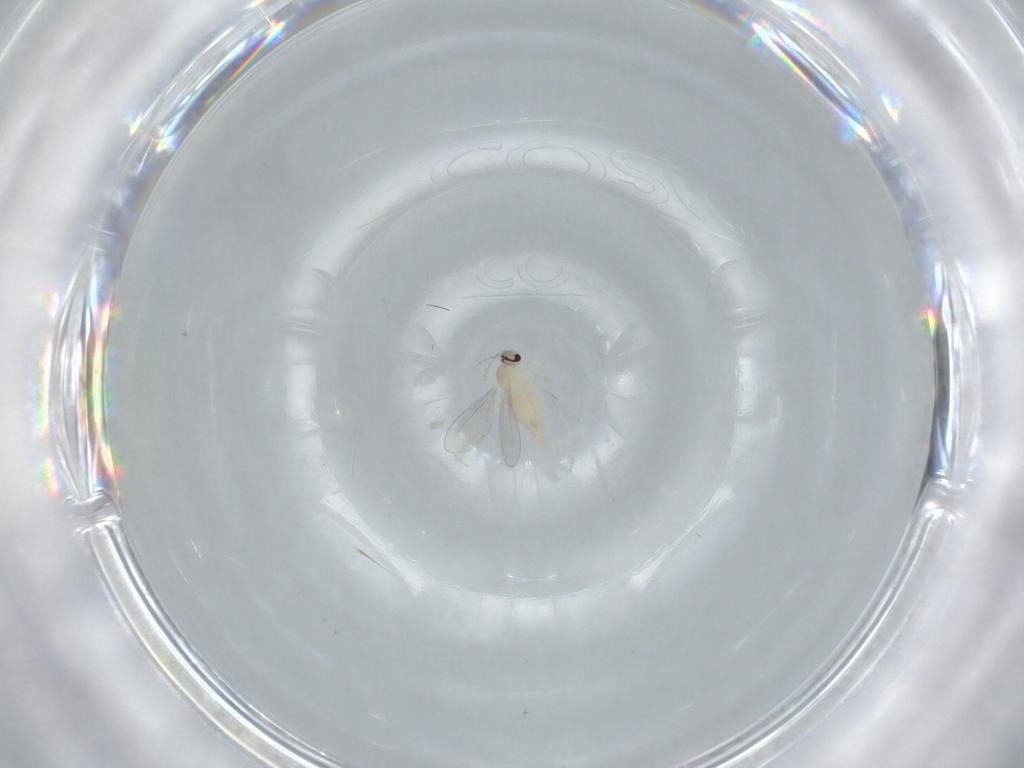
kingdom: Animalia
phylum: Arthropoda
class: Insecta
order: Diptera
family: Cecidomyiidae
